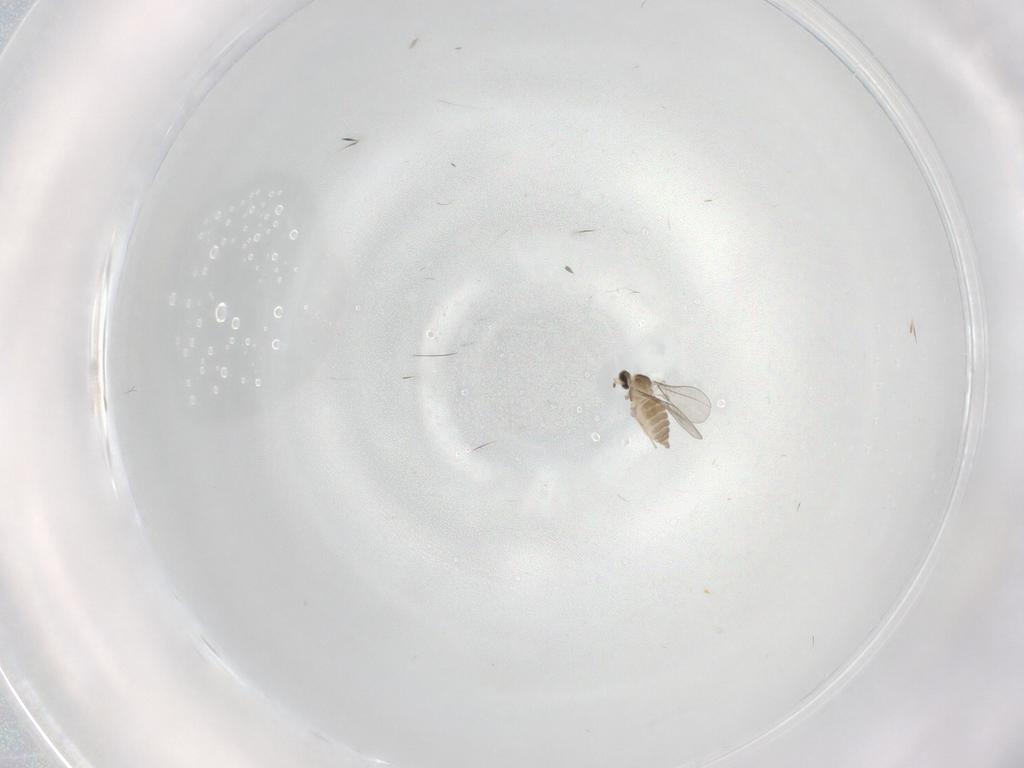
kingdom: Animalia
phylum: Arthropoda
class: Insecta
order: Diptera
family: Cecidomyiidae
